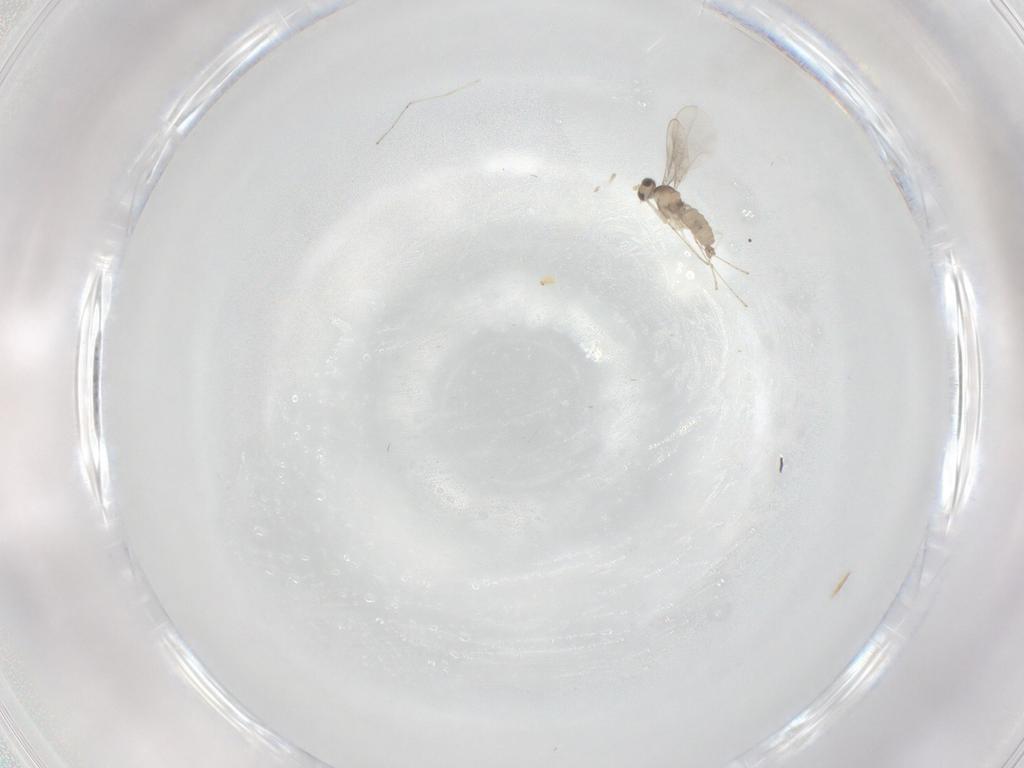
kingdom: Animalia
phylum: Arthropoda
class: Insecta
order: Diptera
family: Cecidomyiidae
